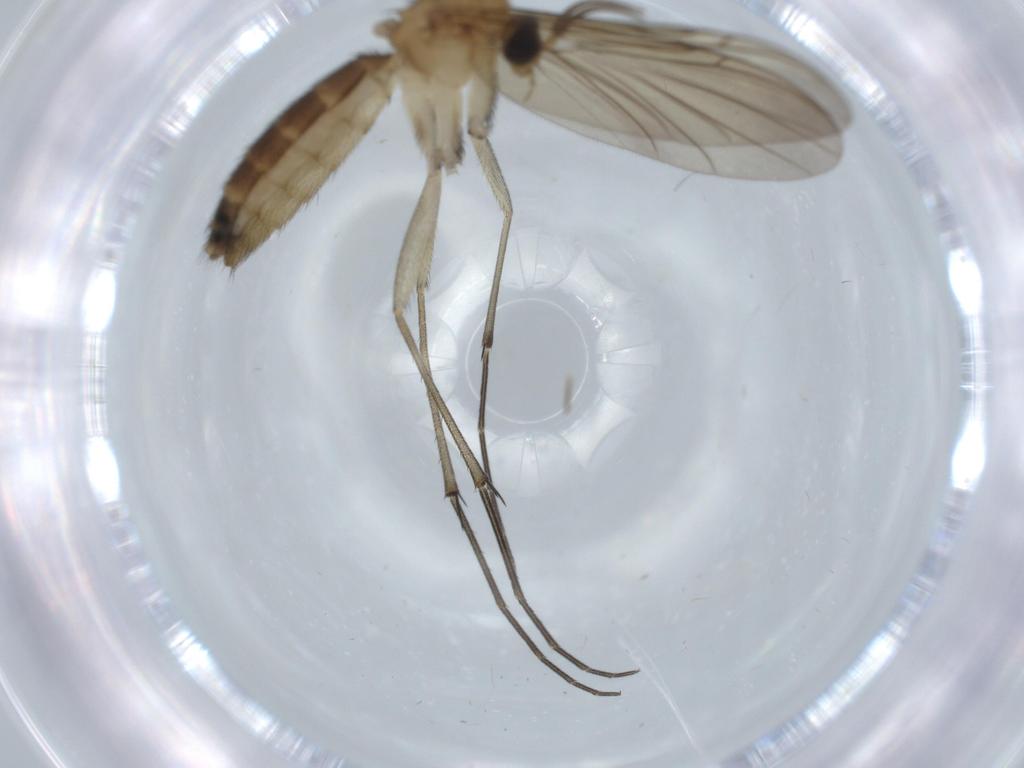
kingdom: Animalia
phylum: Arthropoda
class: Insecta
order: Diptera
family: Keroplatidae
